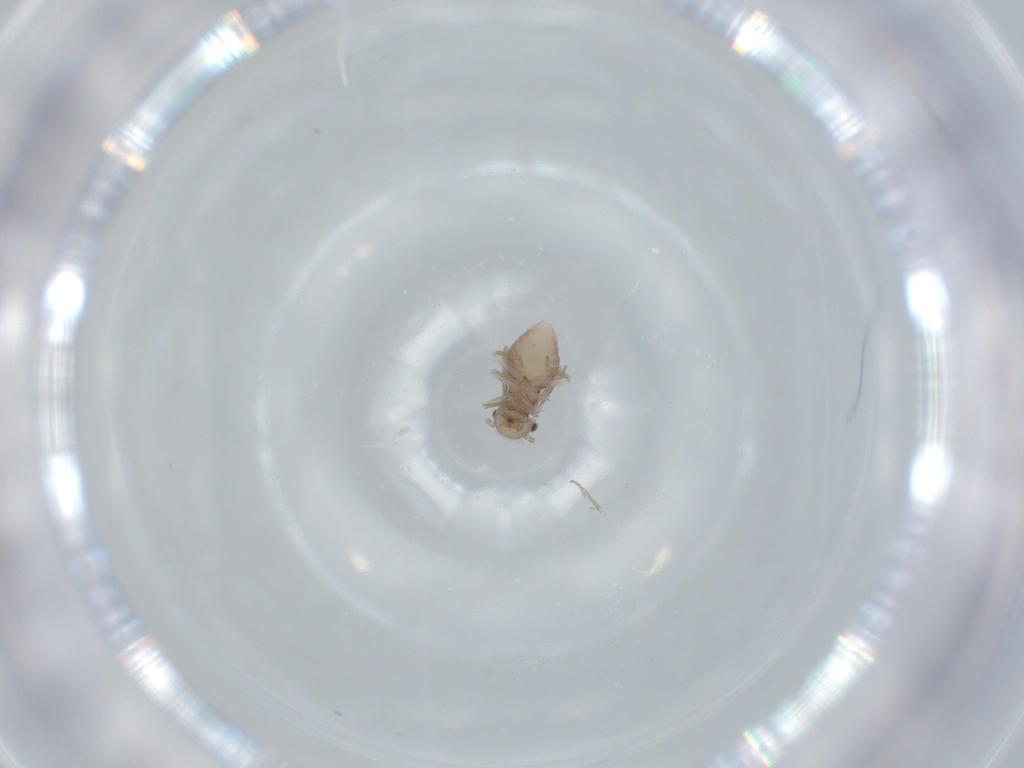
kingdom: Animalia
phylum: Arthropoda
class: Insecta
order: Psocodea
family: Ectopsocidae
